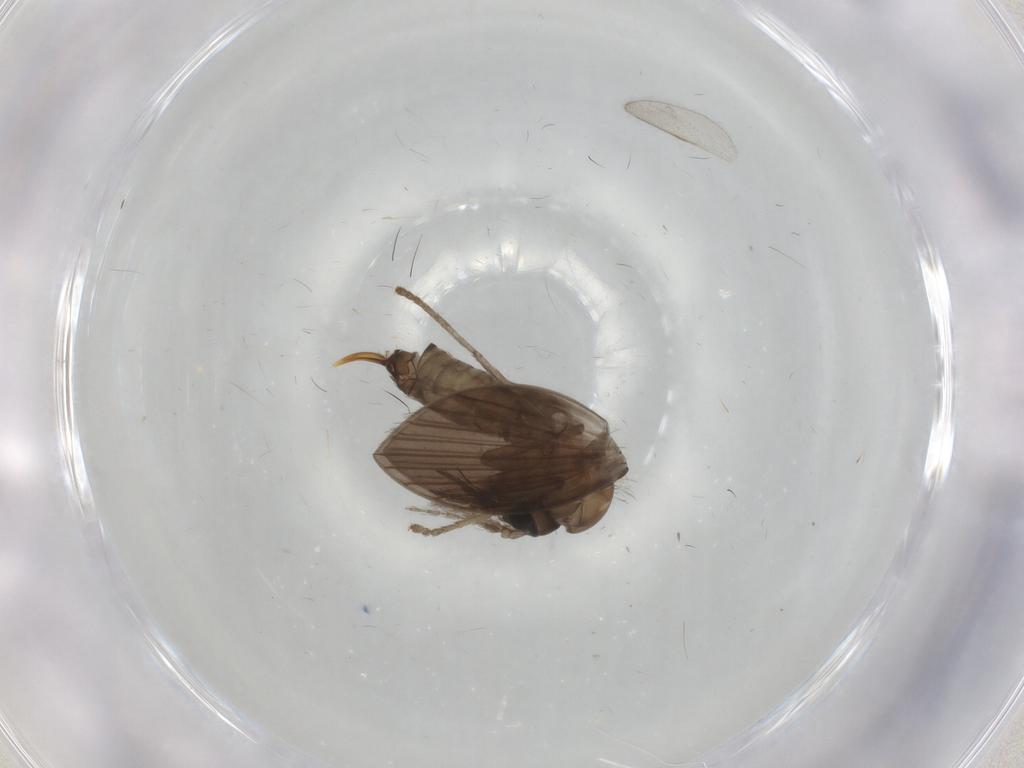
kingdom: Animalia
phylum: Arthropoda
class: Insecta
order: Diptera
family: Psychodidae
